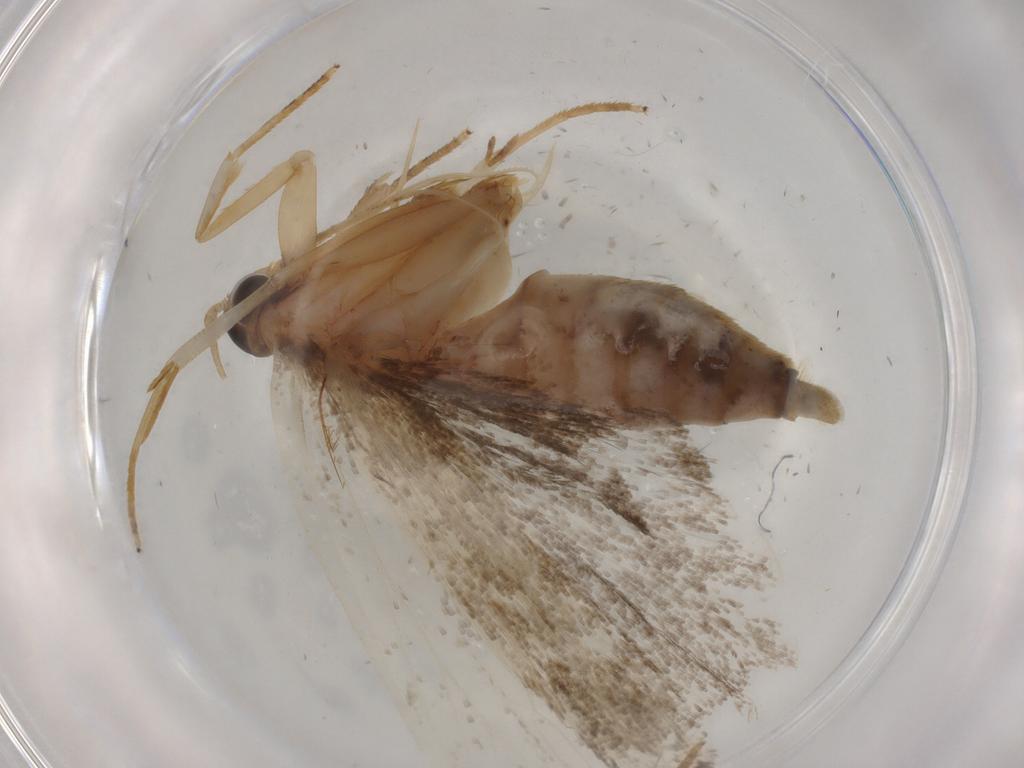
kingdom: Animalia
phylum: Arthropoda
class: Insecta
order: Lepidoptera
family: Autostichidae
